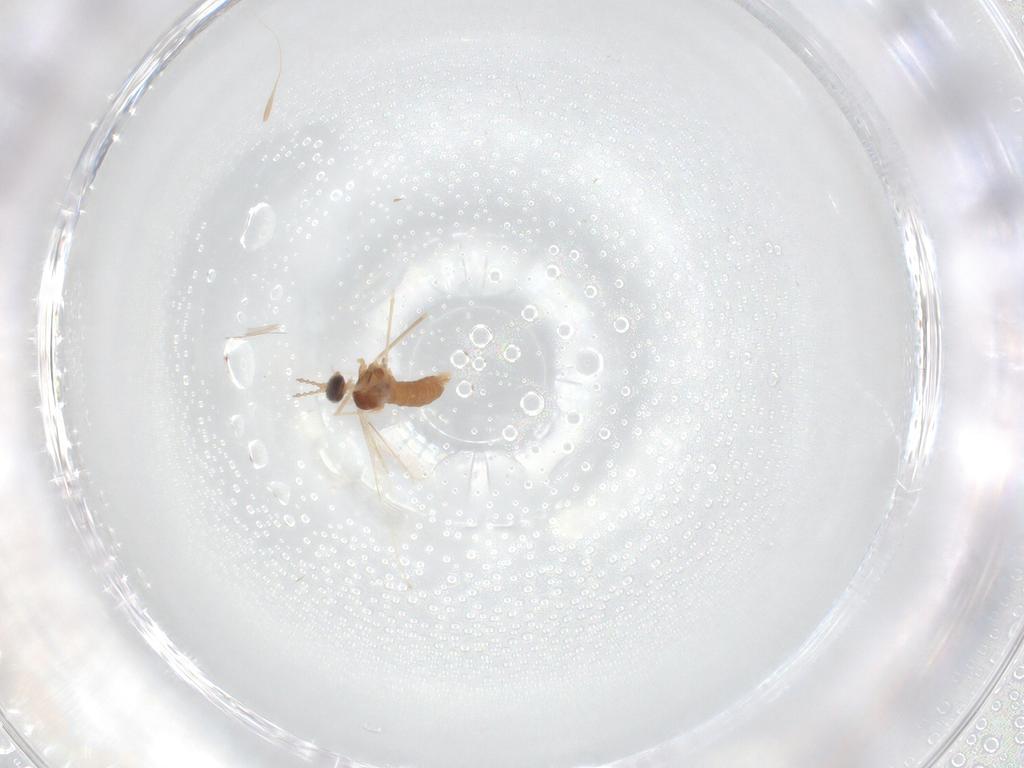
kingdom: Animalia
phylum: Arthropoda
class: Insecta
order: Diptera
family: Cecidomyiidae
